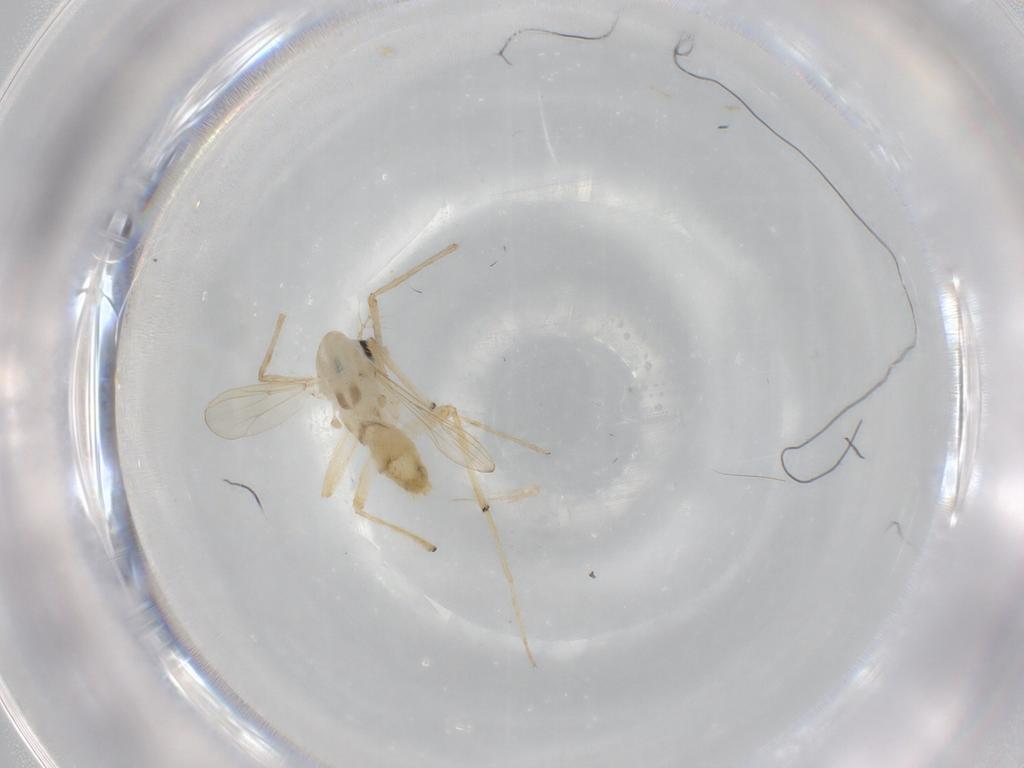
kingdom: Animalia
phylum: Arthropoda
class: Insecta
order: Diptera
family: Chironomidae
